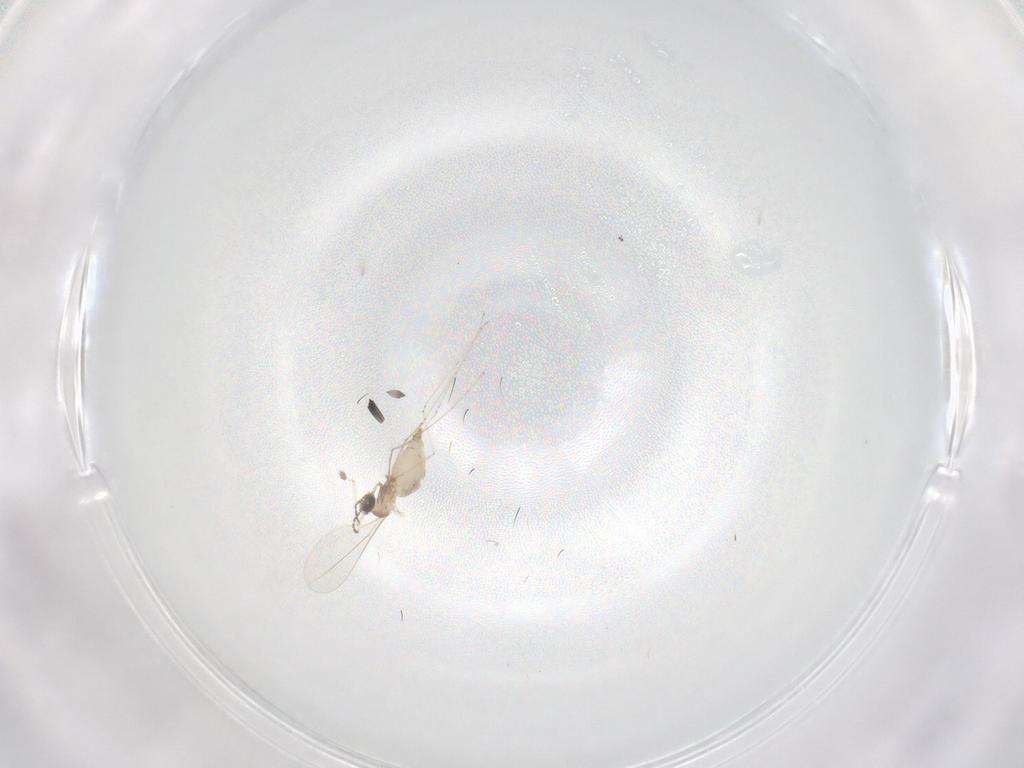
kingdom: Animalia
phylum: Arthropoda
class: Insecta
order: Diptera
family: Cecidomyiidae
